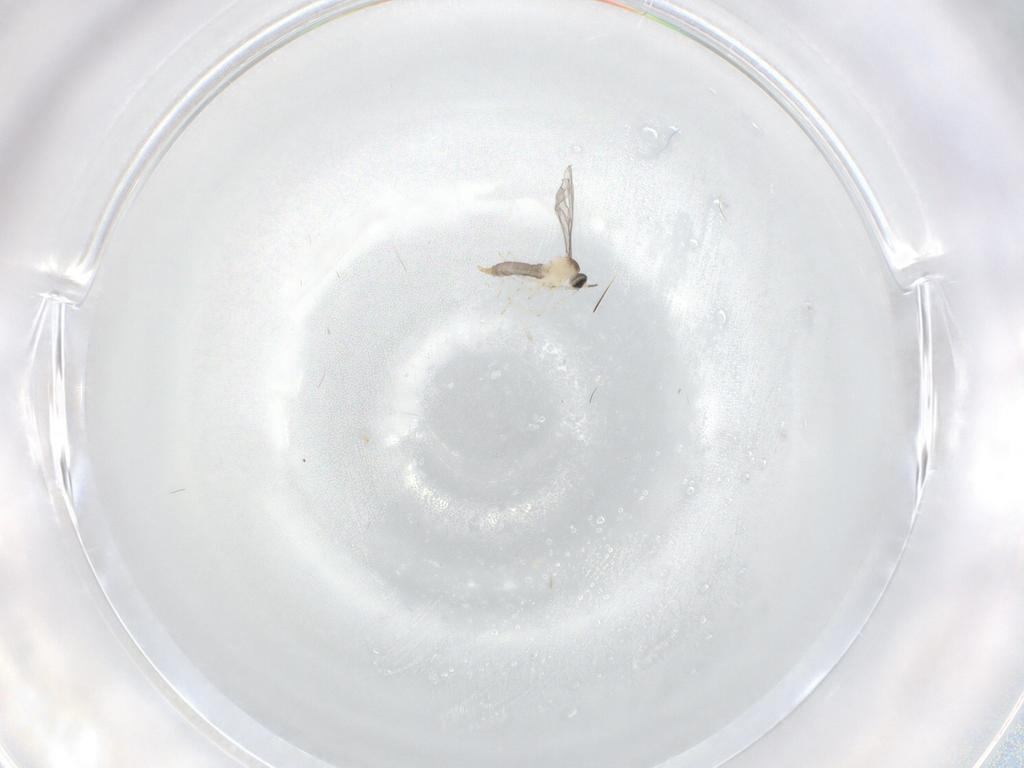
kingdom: Animalia
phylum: Arthropoda
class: Insecta
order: Diptera
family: Cecidomyiidae
